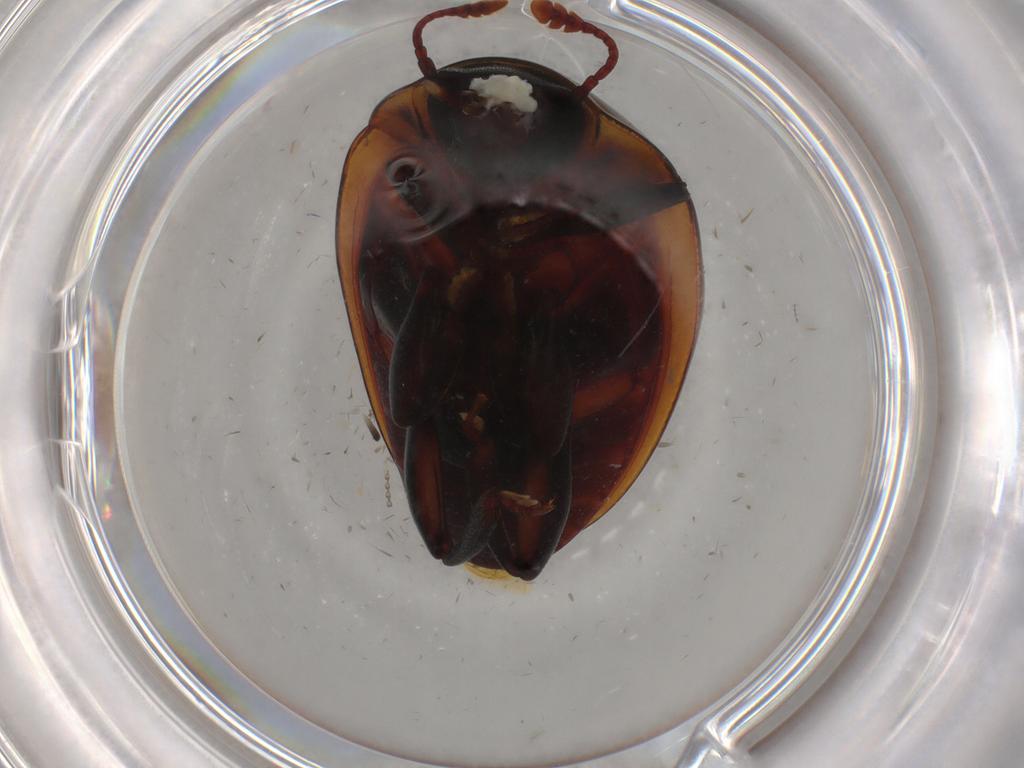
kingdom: Animalia
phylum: Arthropoda
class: Insecta
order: Coleoptera
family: Zopheridae
